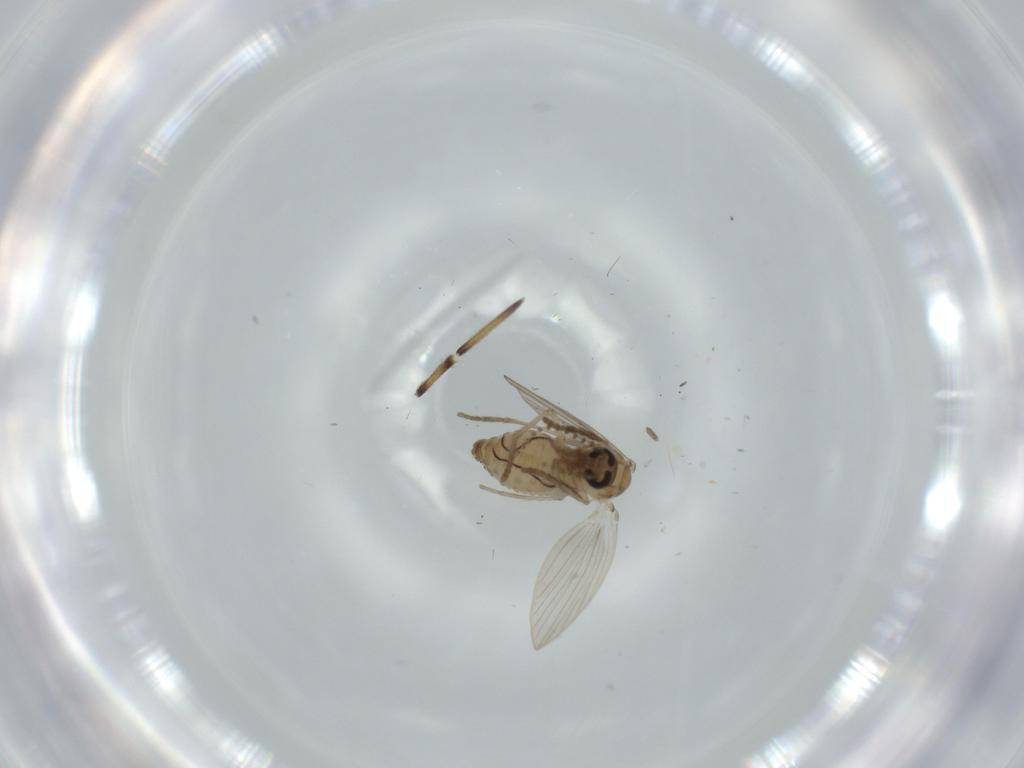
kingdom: Animalia
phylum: Arthropoda
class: Insecta
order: Diptera
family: Psychodidae
